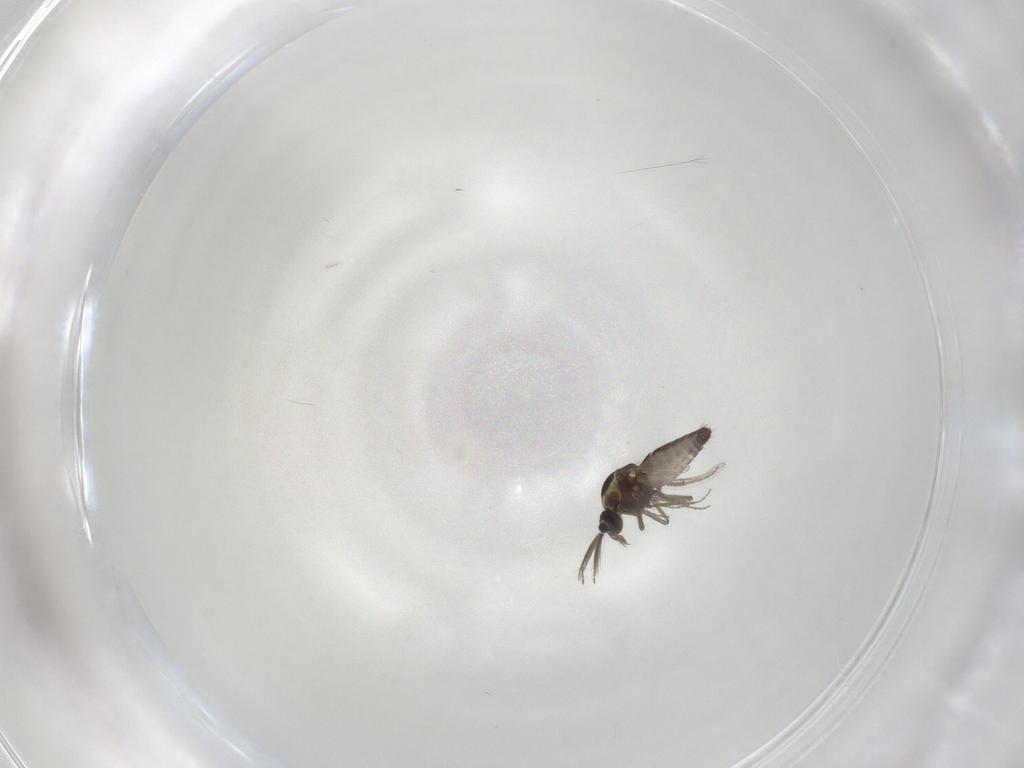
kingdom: Animalia
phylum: Arthropoda
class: Insecta
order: Diptera
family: Ceratopogonidae
